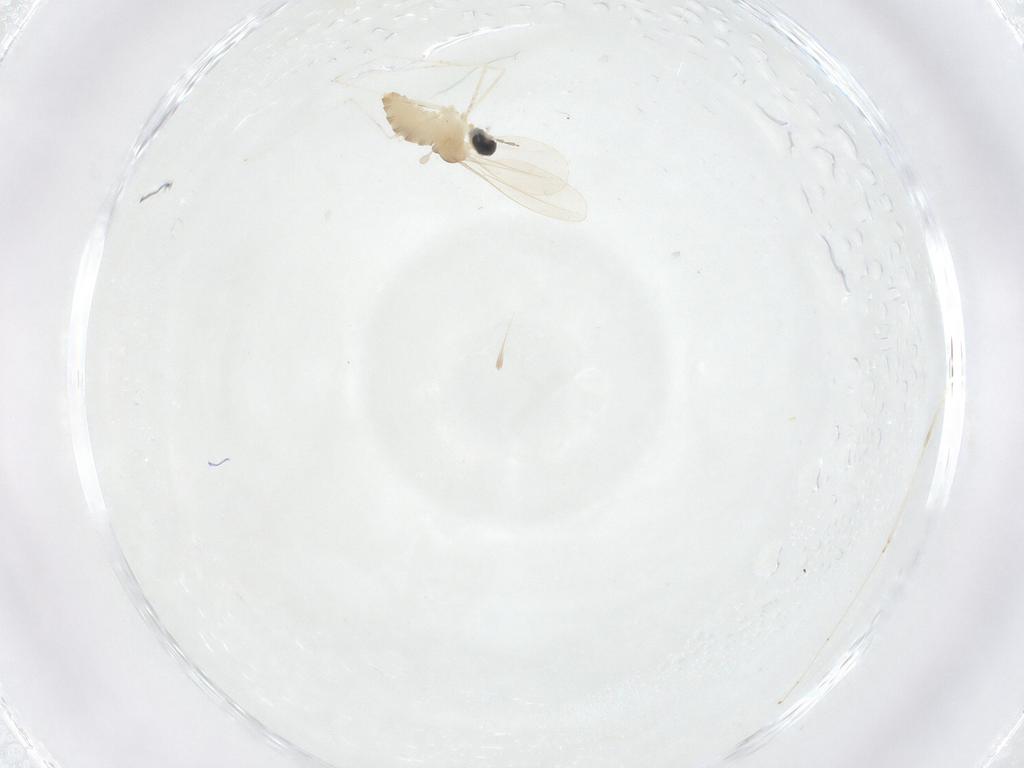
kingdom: Animalia
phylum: Arthropoda
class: Insecta
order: Diptera
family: Cecidomyiidae
